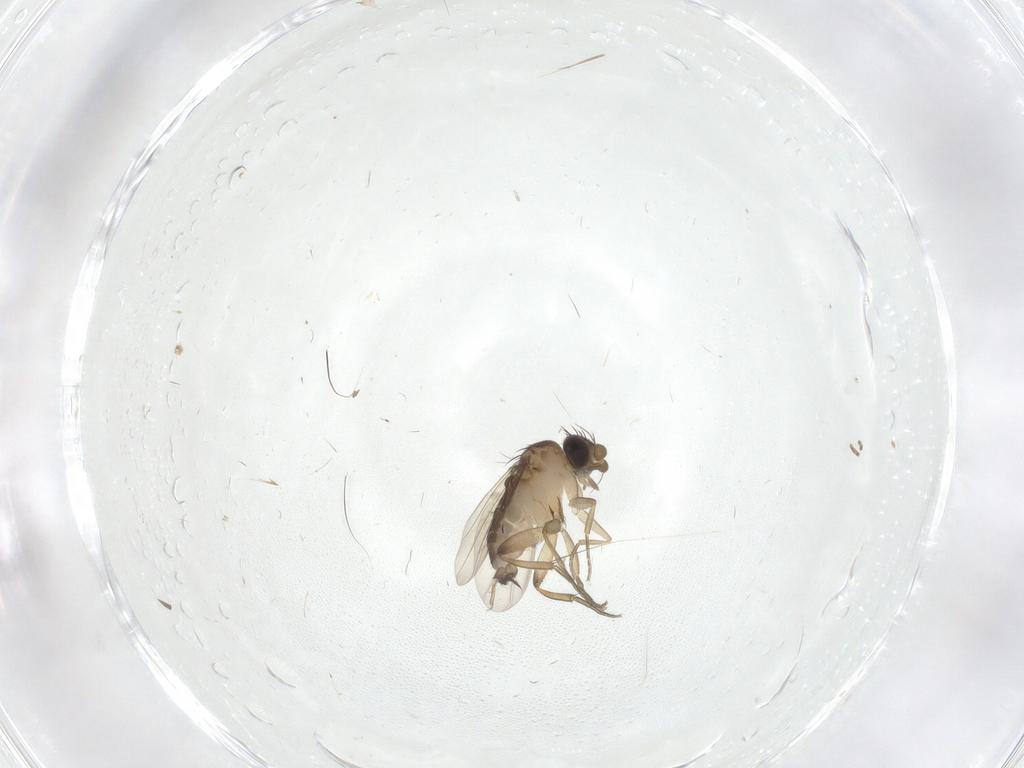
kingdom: Animalia
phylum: Arthropoda
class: Insecta
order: Diptera
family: Phoridae
